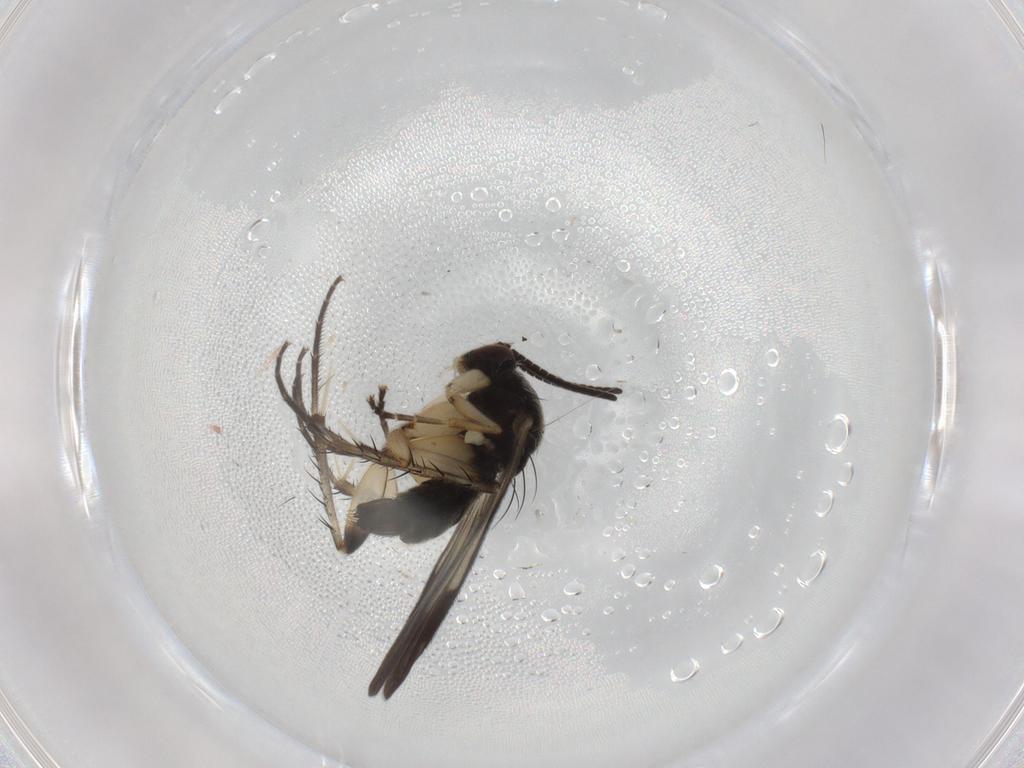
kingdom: Animalia
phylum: Arthropoda
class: Insecta
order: Diptera
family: Mycetophilidae
